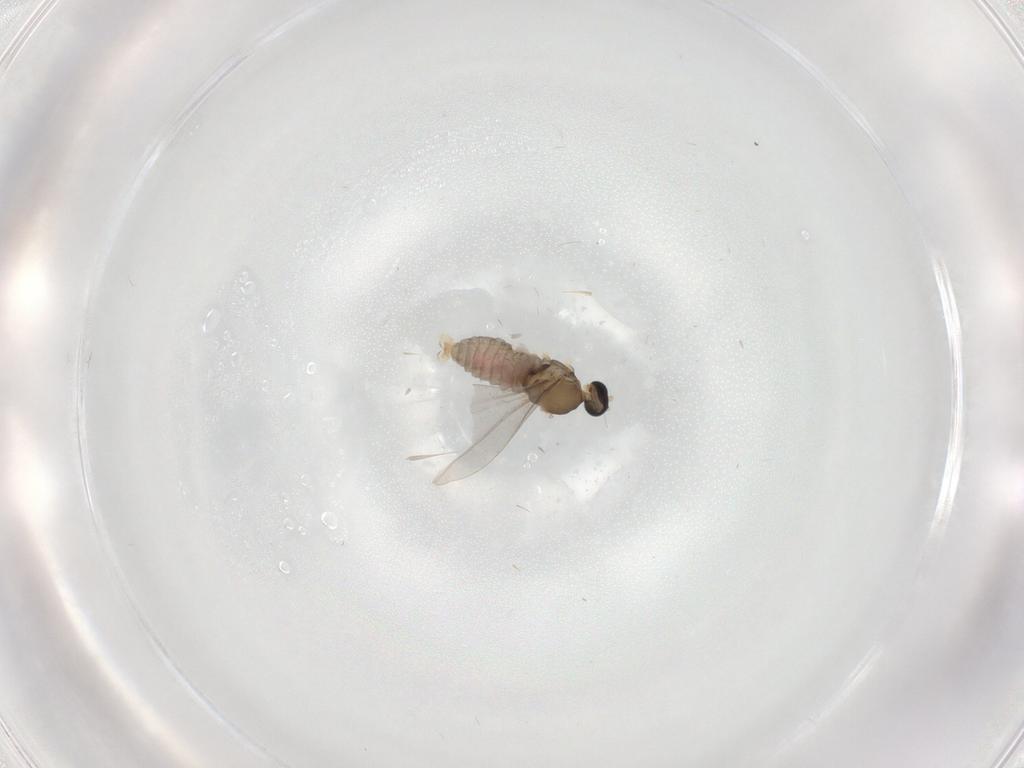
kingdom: Animalia
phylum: Arthropoda
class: Insecta
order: Diptera
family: Cecidomyiidae
